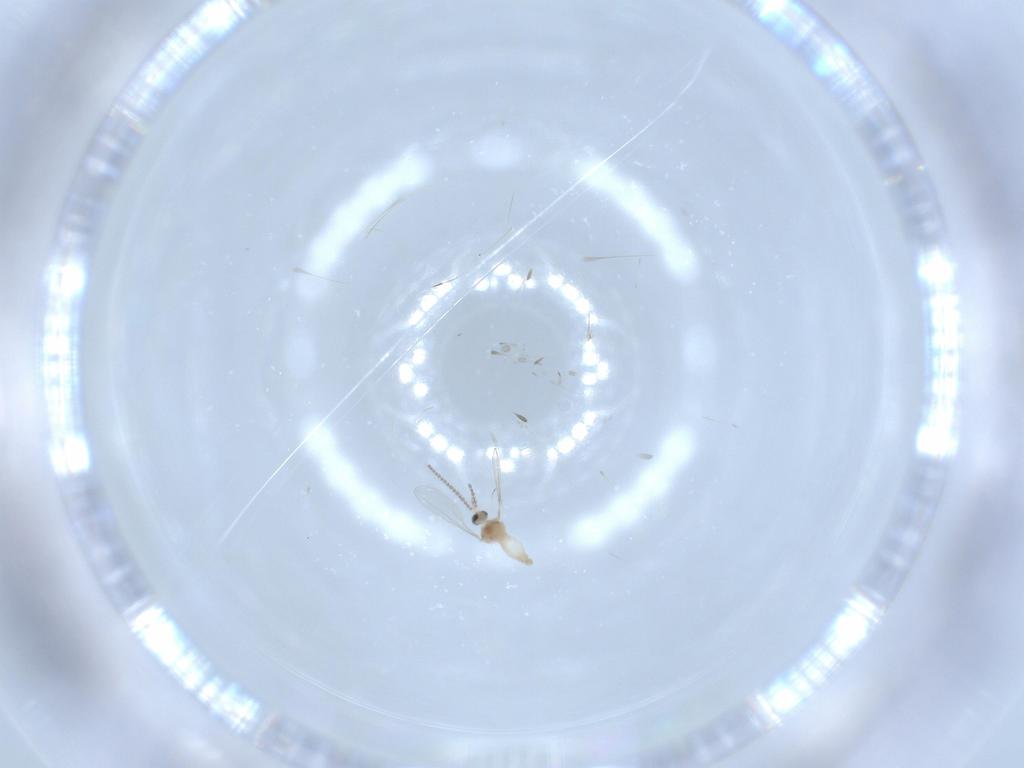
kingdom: Animalia
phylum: Arthropoda
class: Insecta
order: Diptera
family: Cecidomyiidae
